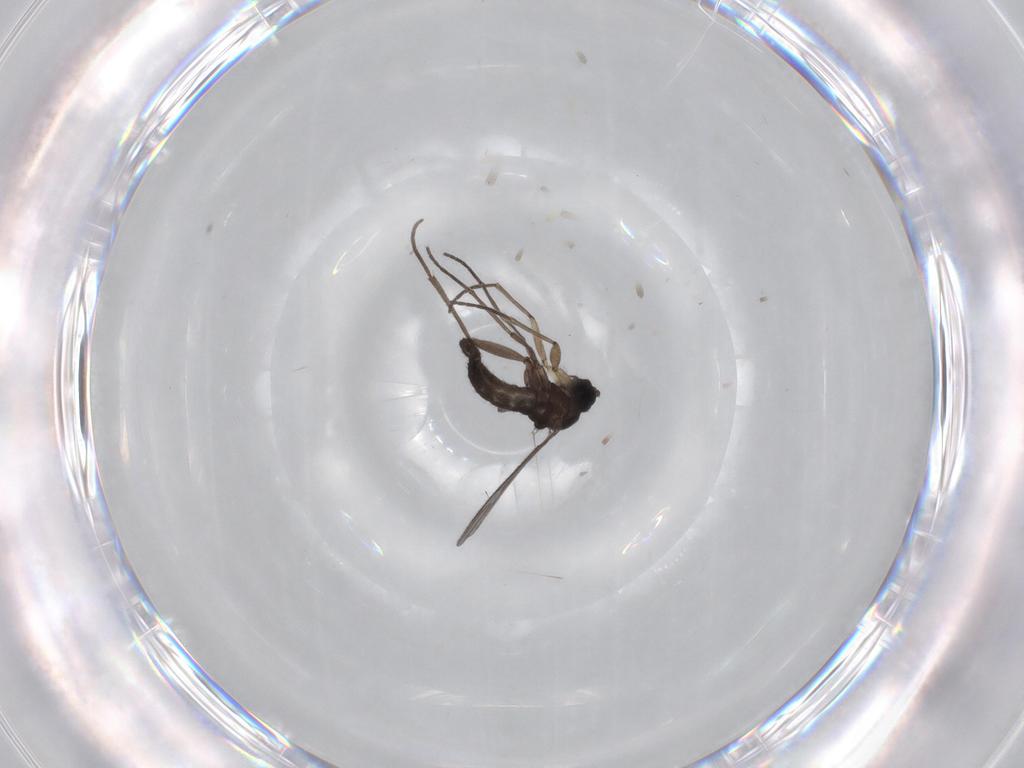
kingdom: Animalia
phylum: Arthropoda
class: Insecta
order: Diptera
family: Sciaridae
